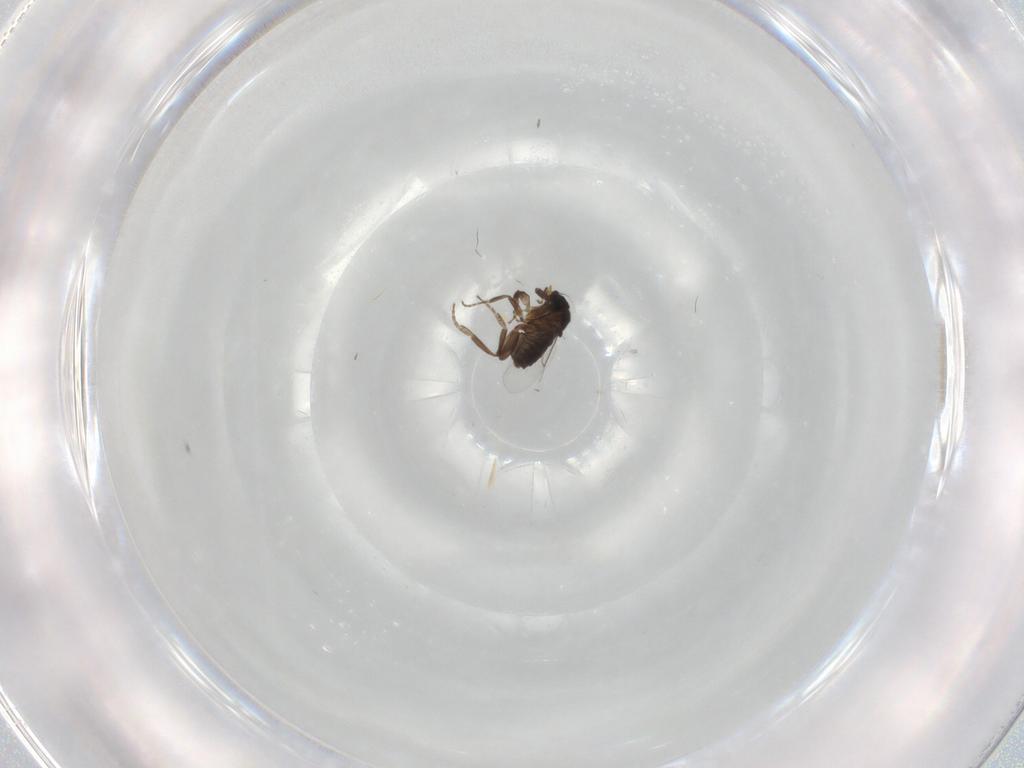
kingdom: Animalia
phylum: Arthropoda
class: Insecta
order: Diptera
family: Phoridae
